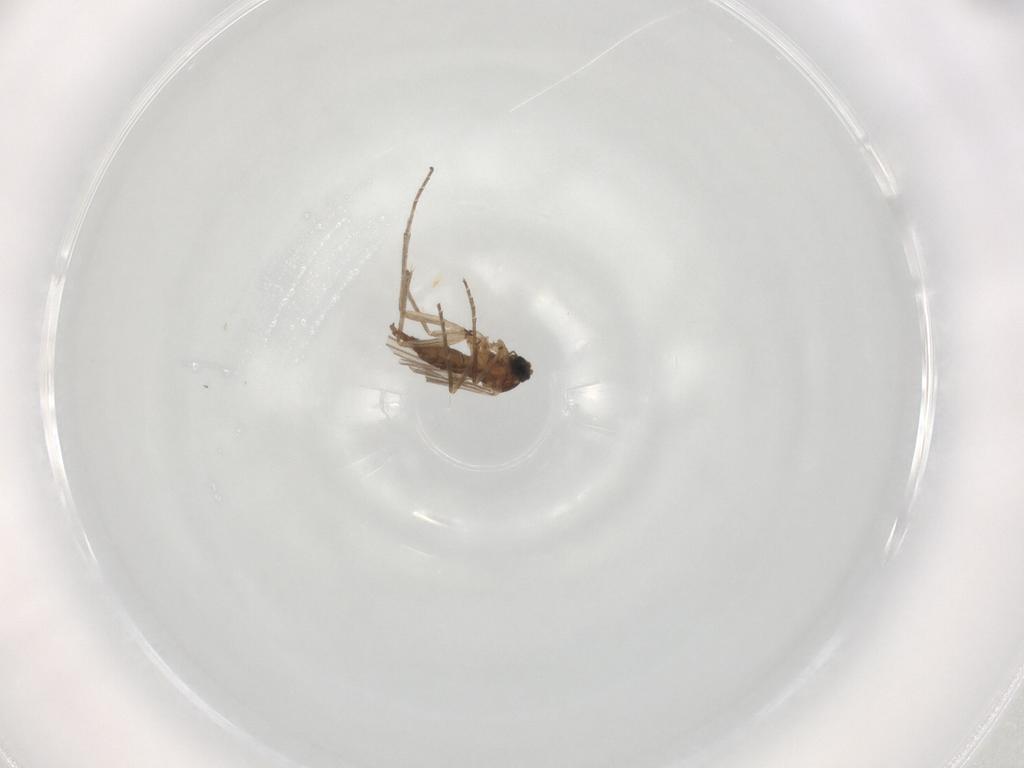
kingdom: Animalia
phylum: Arthropoda
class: Insecta
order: Diptera
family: Sciaridae
